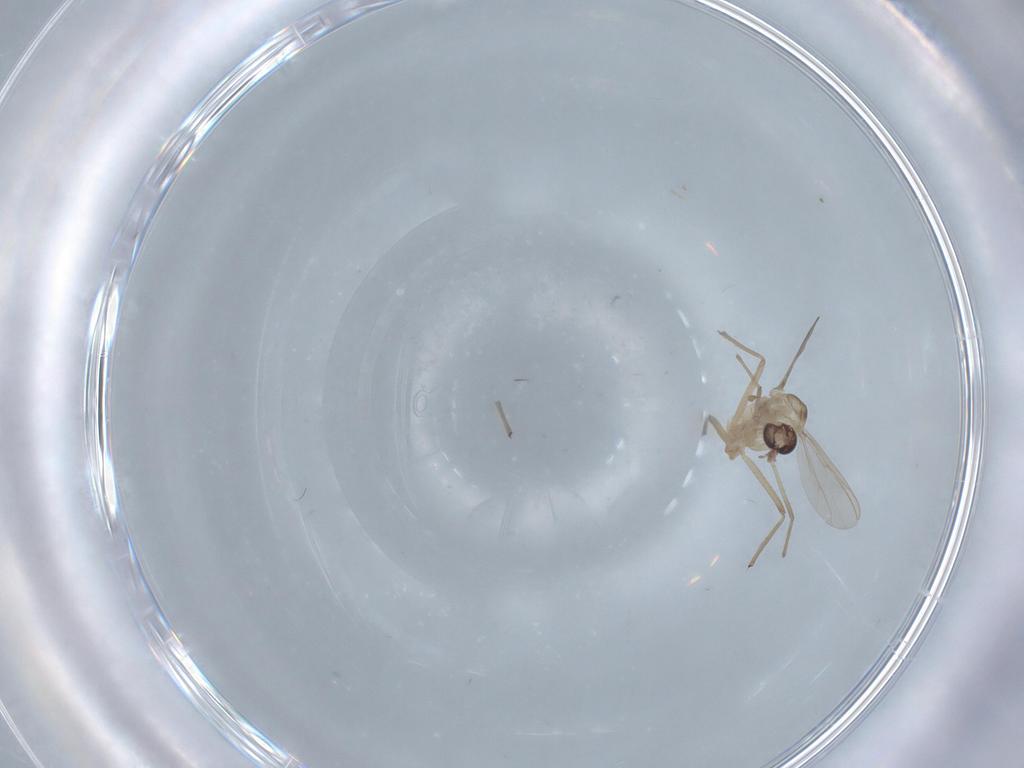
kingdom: Animalia
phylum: Arthropoda
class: Insecta
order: Diptera
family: Chironomidae
